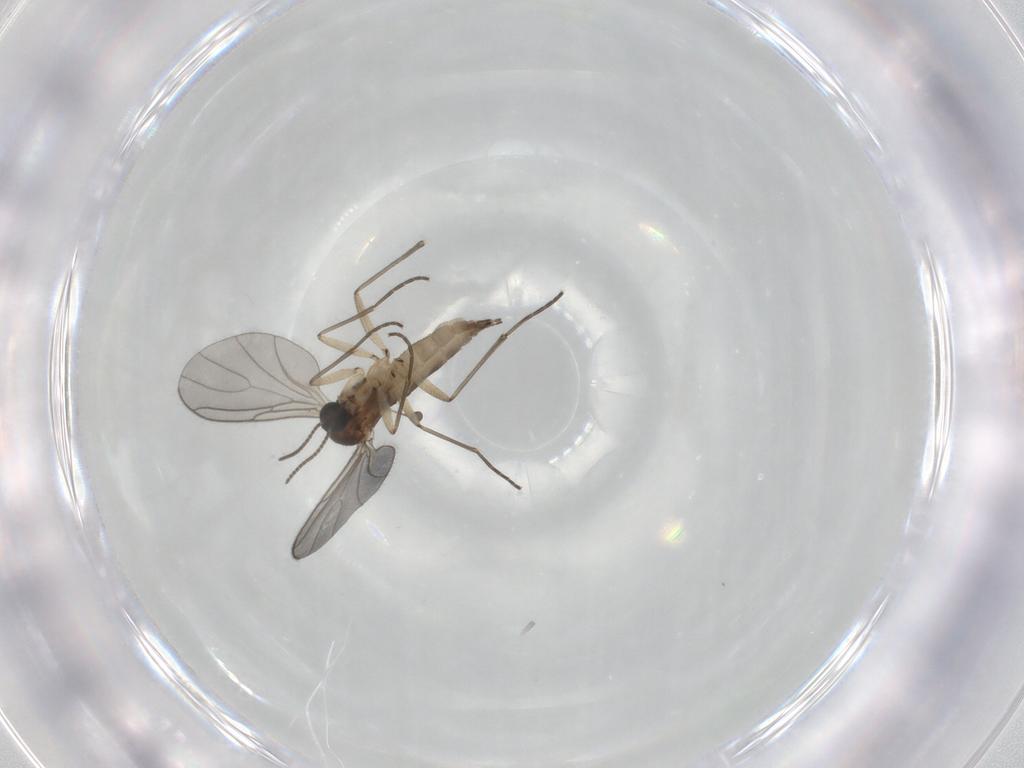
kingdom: Animalia
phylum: Arthropoda
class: Insecta
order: Diptera
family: Sciaridae
